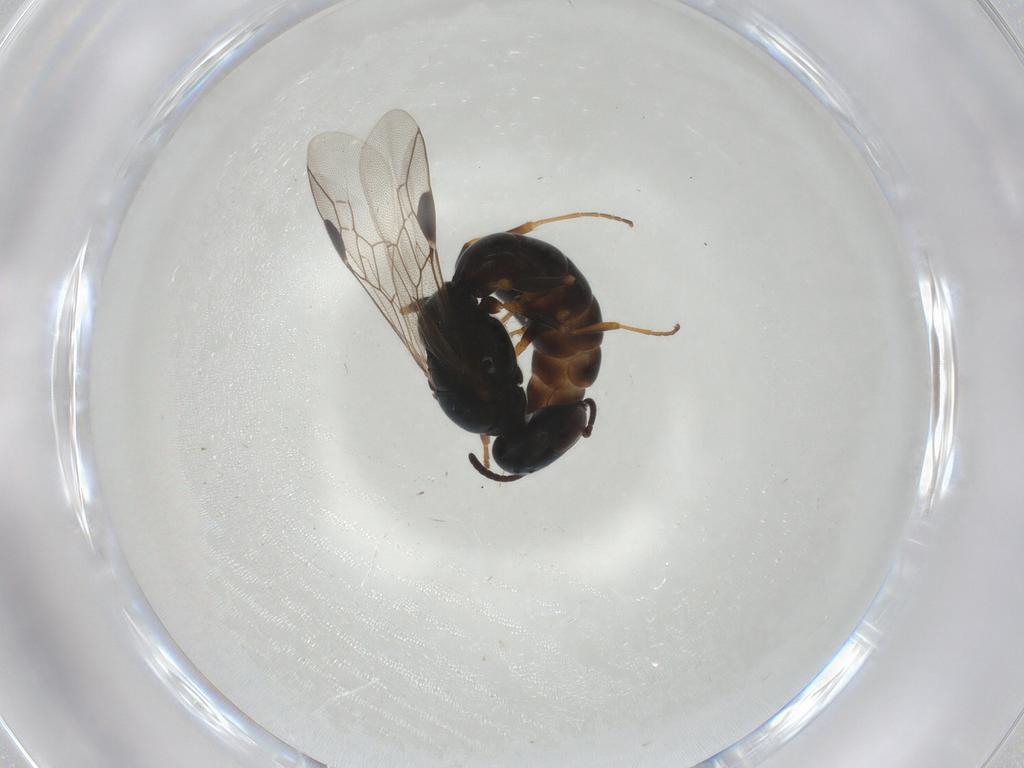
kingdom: Animalia
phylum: Arthropoda
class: Insecta
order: Hymenoptera
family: Crabronidae
